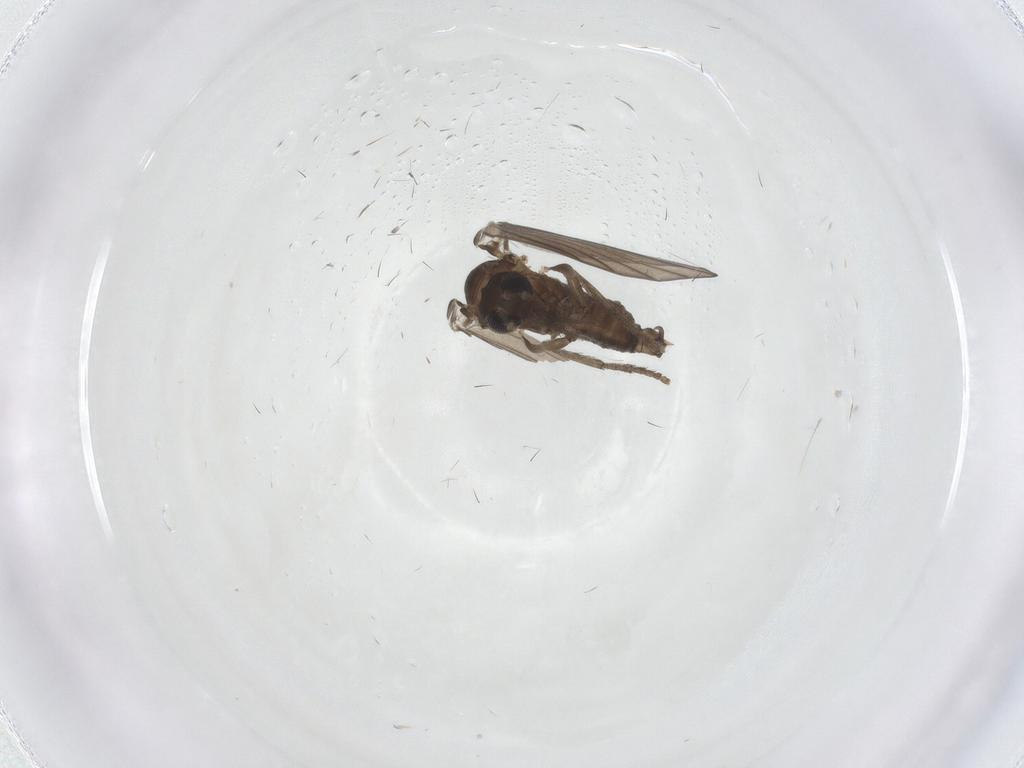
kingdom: Animalia
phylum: Arthropoda
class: Insecta
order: Diptera
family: Psychodidae
